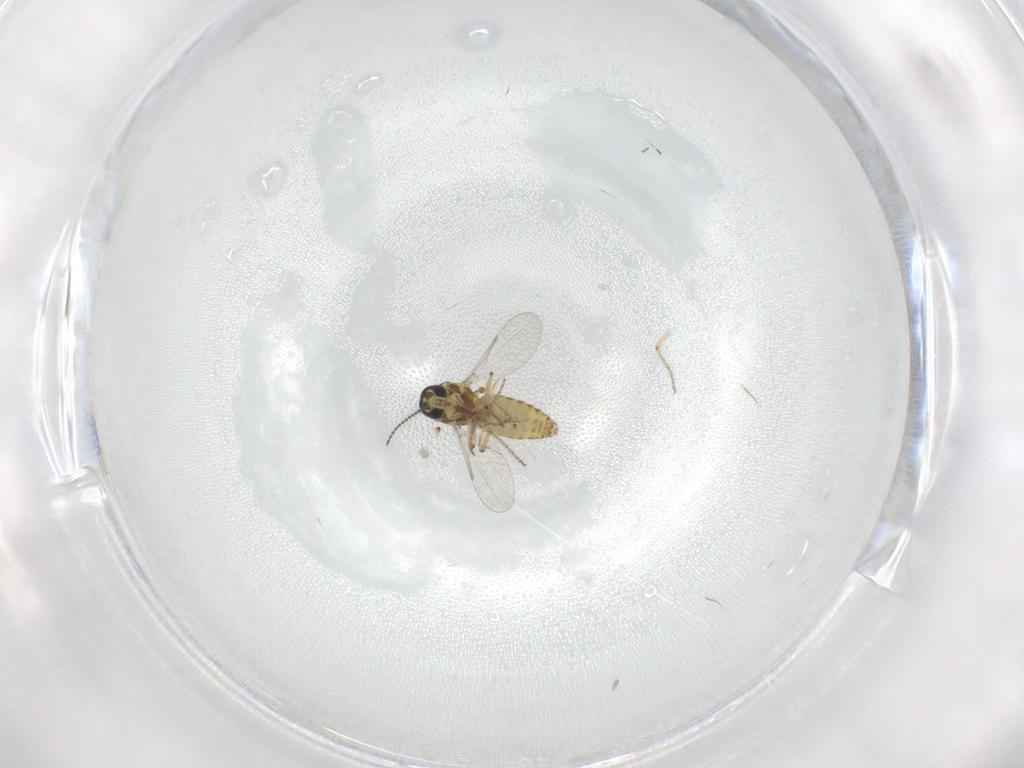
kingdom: Animalia
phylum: Arthropoda
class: Insecta
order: Diptera
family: Ceratopogonidae
